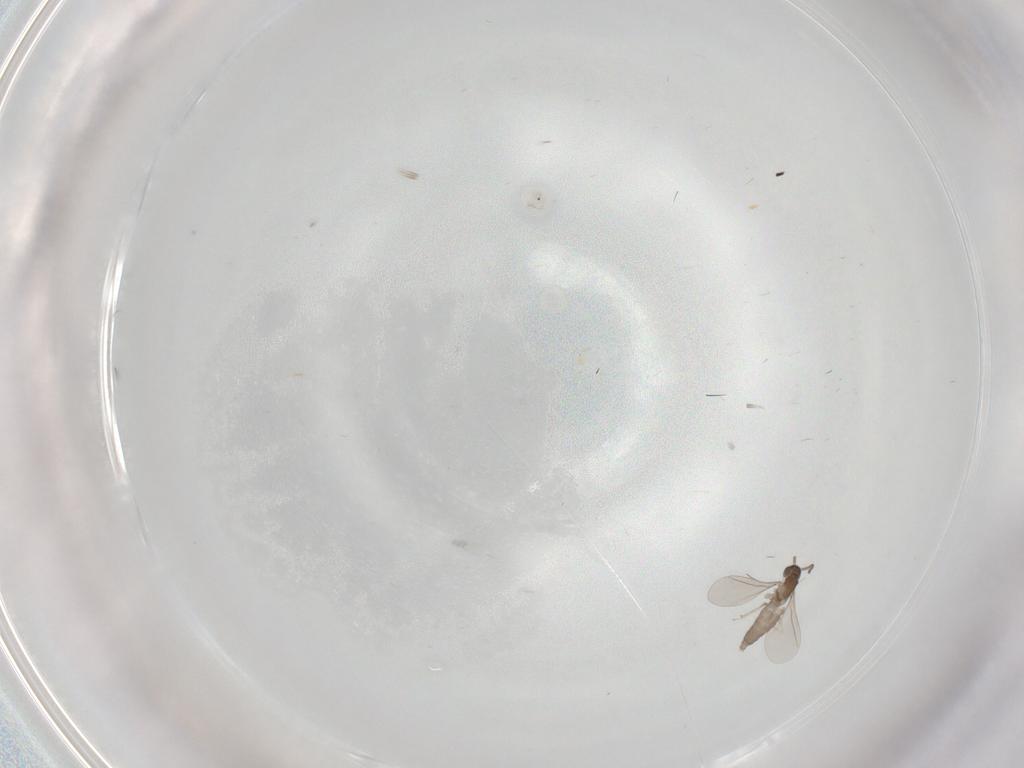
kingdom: Animalia
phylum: Arthropoda
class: Insecta
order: Diptera
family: Cecidomyiidae
